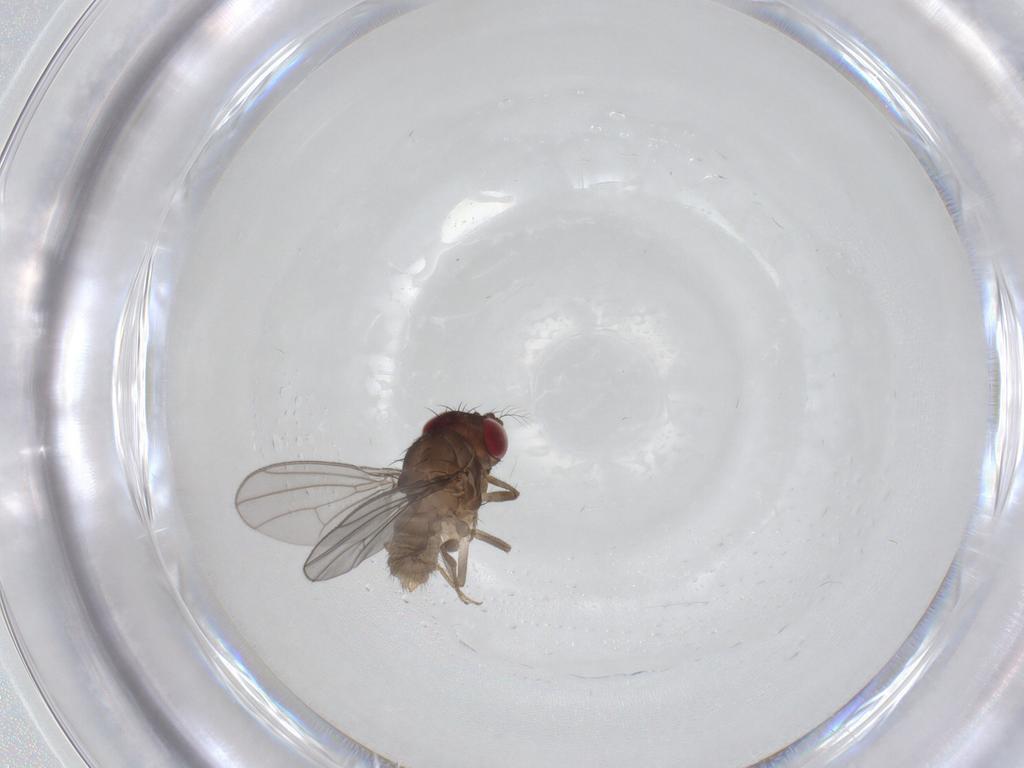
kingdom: Animalia
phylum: Arthropoda
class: Insecta
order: Diptera
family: Drosophilidae
